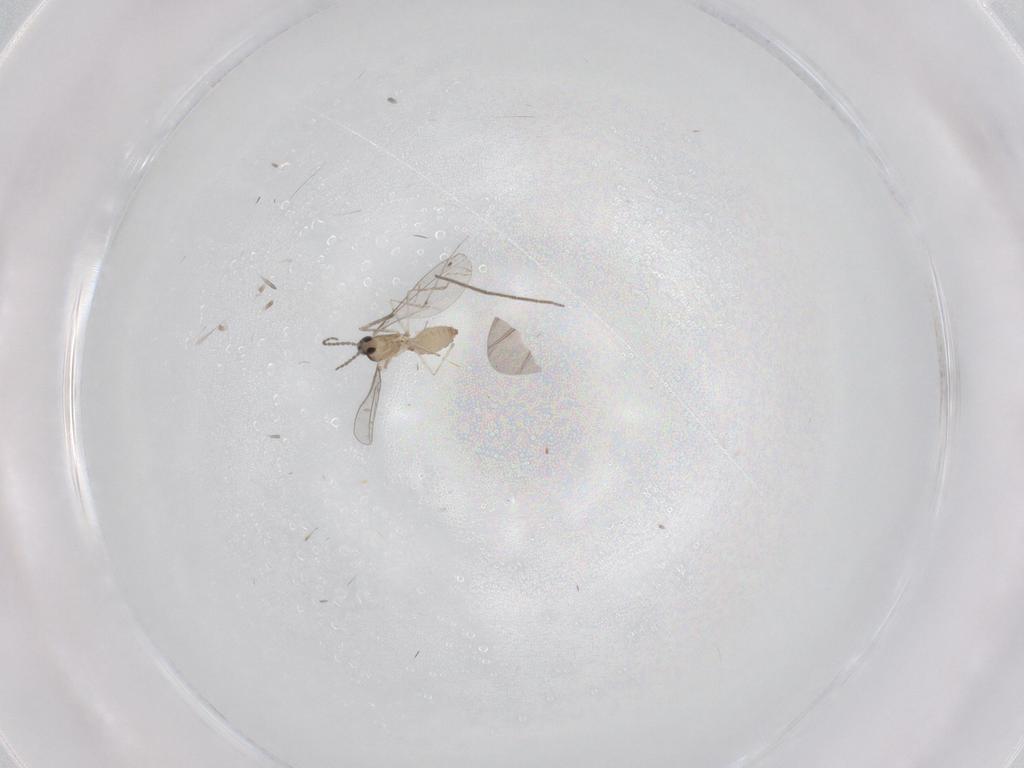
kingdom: Animalia
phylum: Arthropoda
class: Insecta
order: Diptera
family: Cecidomyiidae
